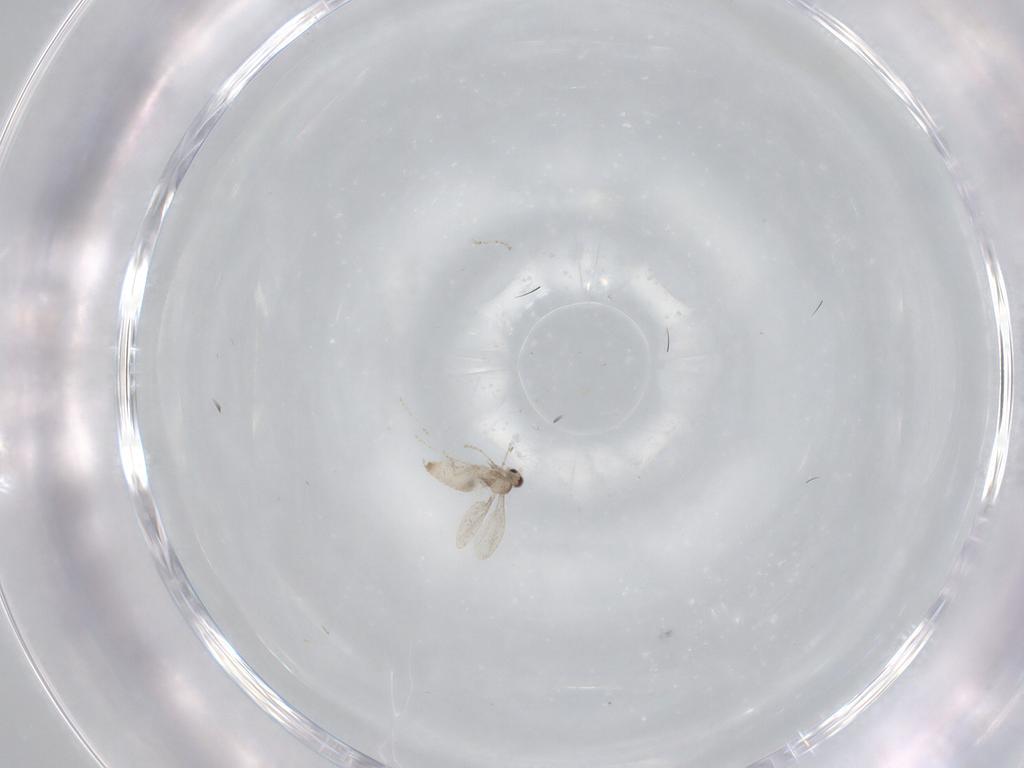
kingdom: Animalia
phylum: Arthropoda
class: Insecta
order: Diptera
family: Cecidomyiidae
